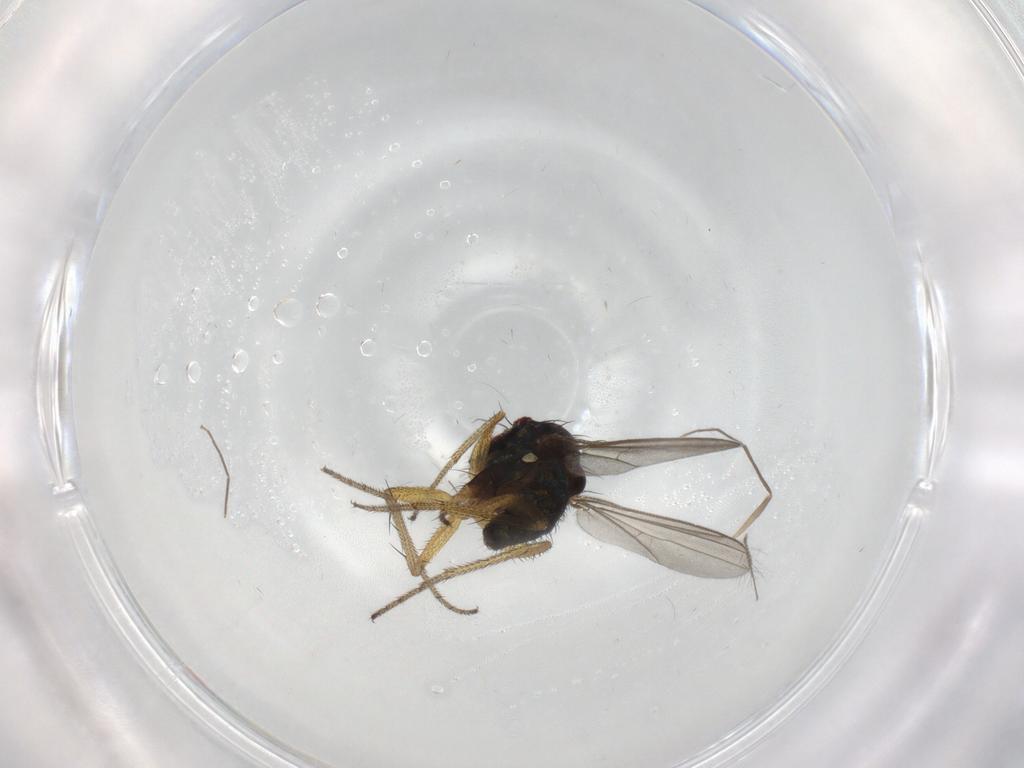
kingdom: Animalia
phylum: Arthropoda
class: Insecta
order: Diptera
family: Chironomidae
